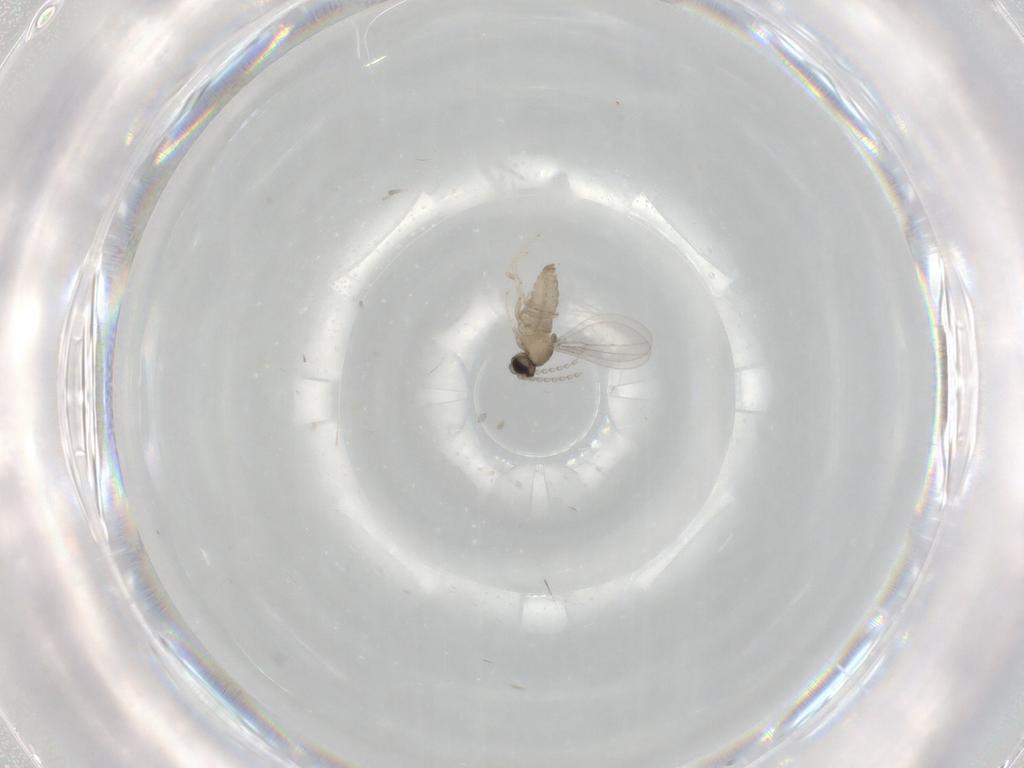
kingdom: Animalia
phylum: Arthropoda
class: Insecta
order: Diptera
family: Cecidomyiidae
